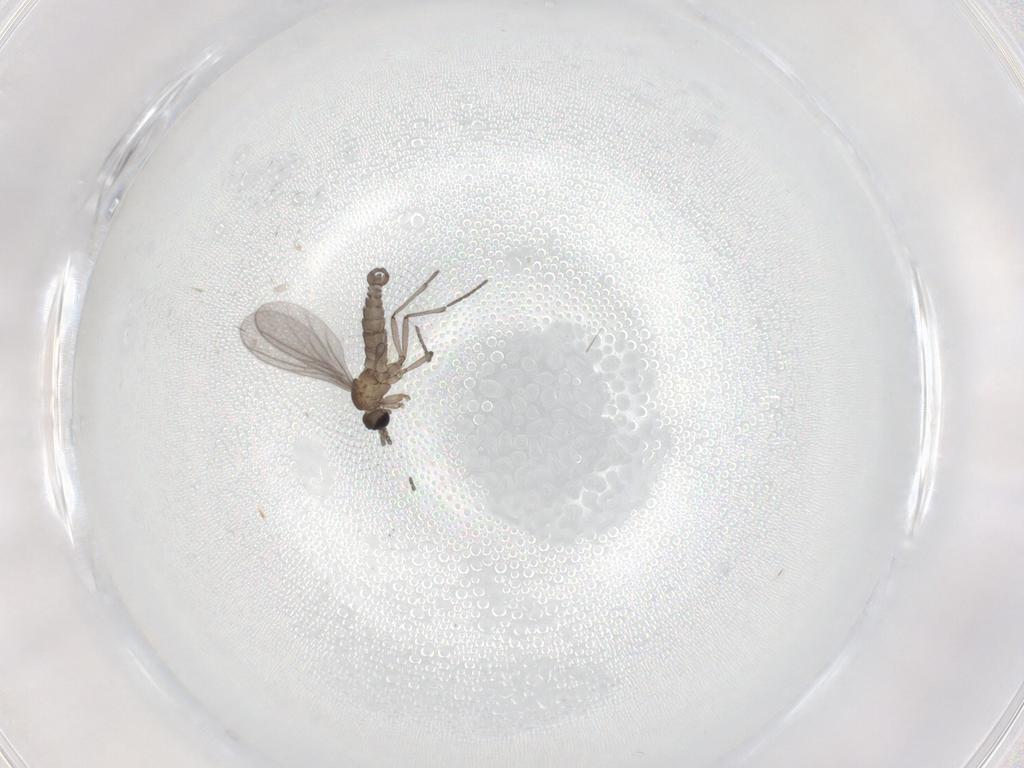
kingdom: Animalia
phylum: Arthropoda
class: Insecta
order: Diptera
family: Sciaridae
